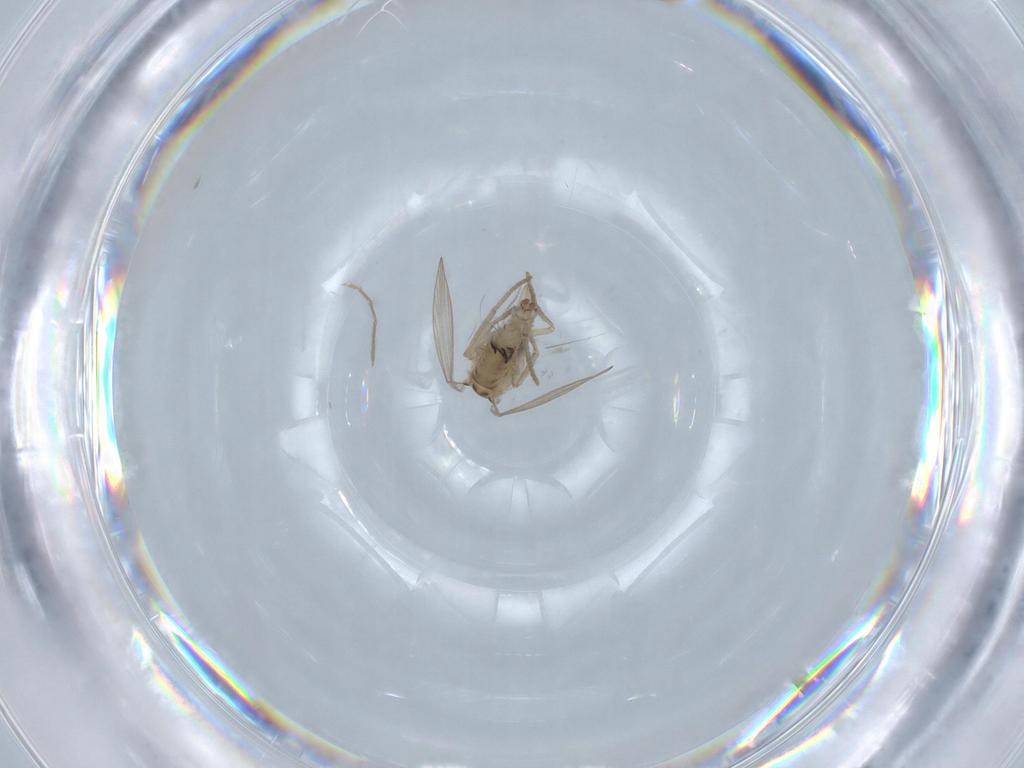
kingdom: Animalia
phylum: Arthropoda
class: Insecta
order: Diptera
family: Psychodidae
